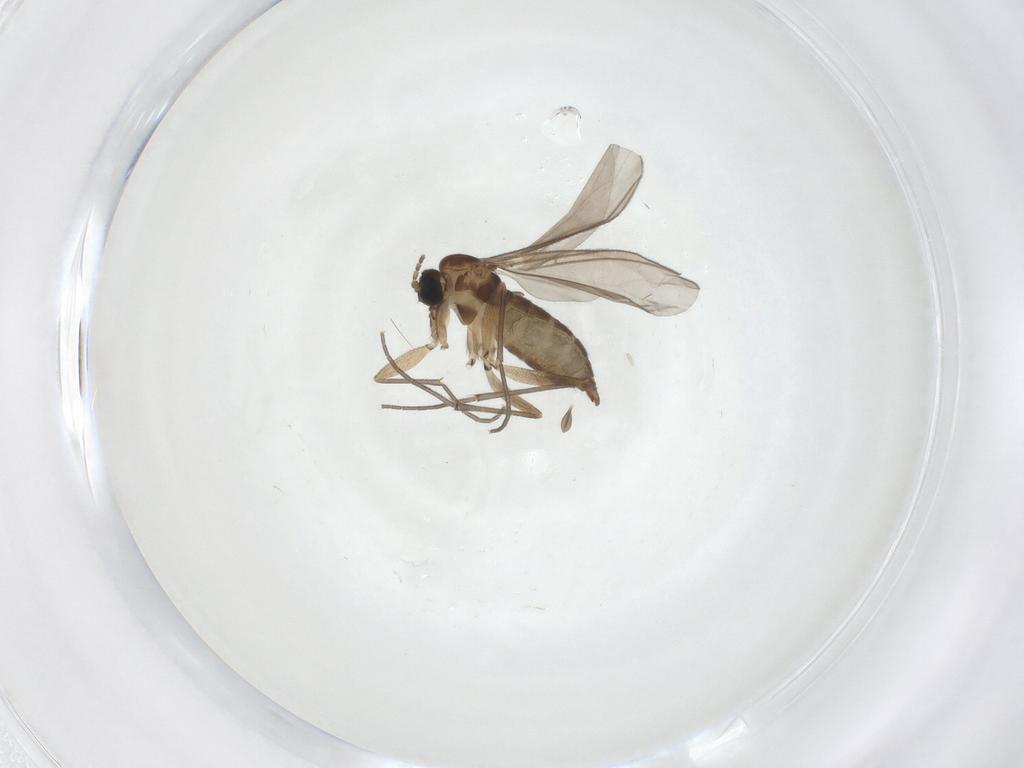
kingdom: Animalia
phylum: Arthropoda
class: Insecta
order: Diptera
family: Sciaridae
